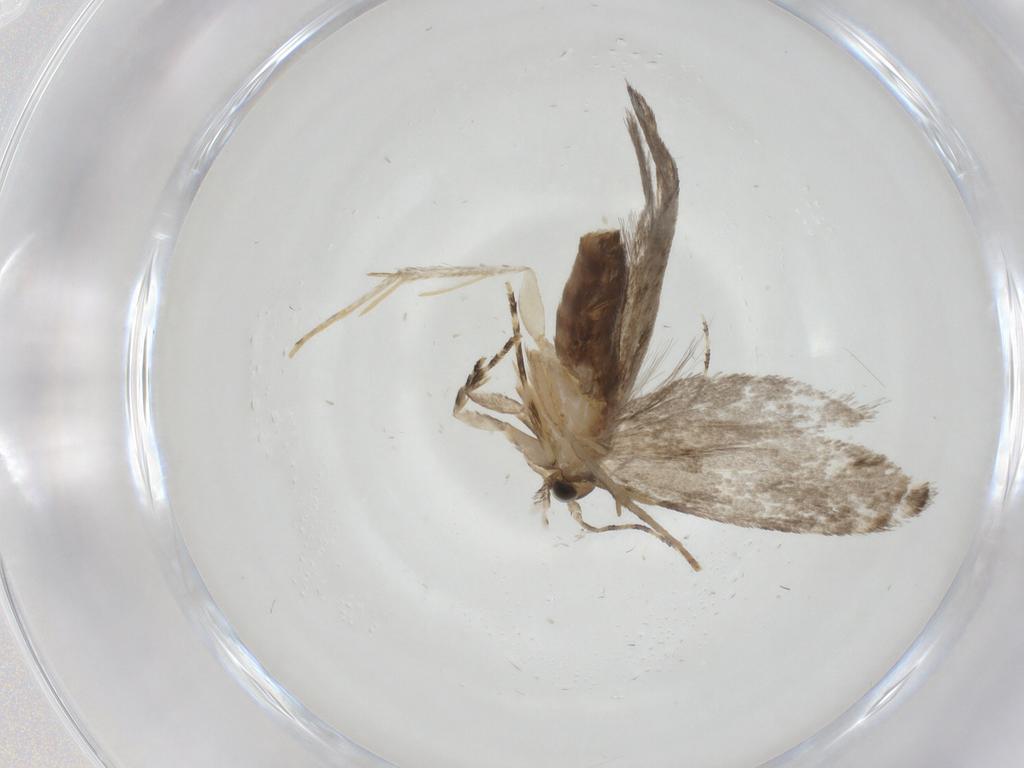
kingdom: Animalia
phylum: Arthropoda
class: Insecta
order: Lepidoptera
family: Tineidae
